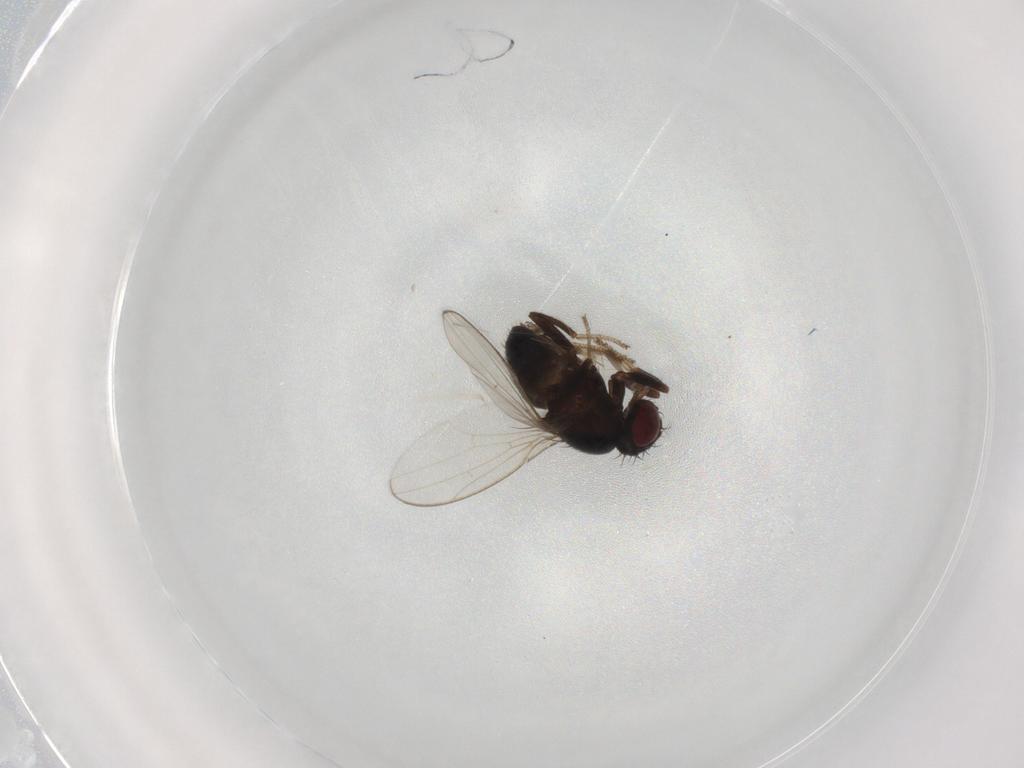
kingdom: Animalia
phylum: Arthropoda
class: Insecta
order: Diptera
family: Drosophilidae
